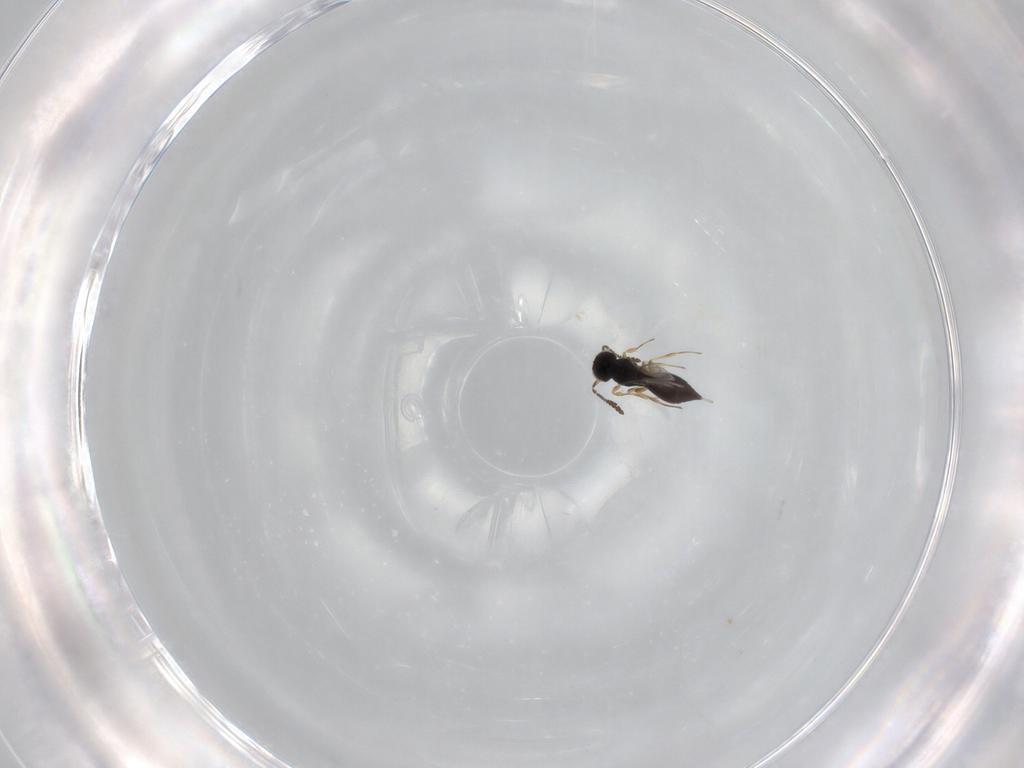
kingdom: Animalia
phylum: Arthropoda
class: Insecta
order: Hymenoptera
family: Scelionidae
